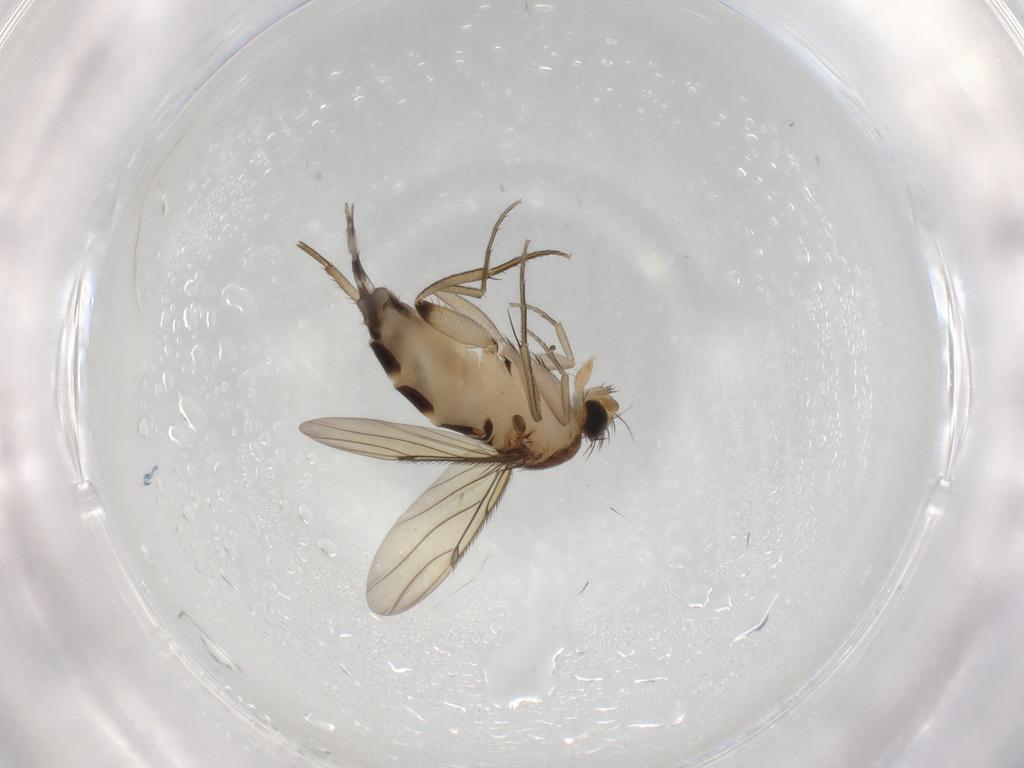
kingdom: Animalia
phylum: Arthropoda
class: Insecta
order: Diptera
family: Phoridae
